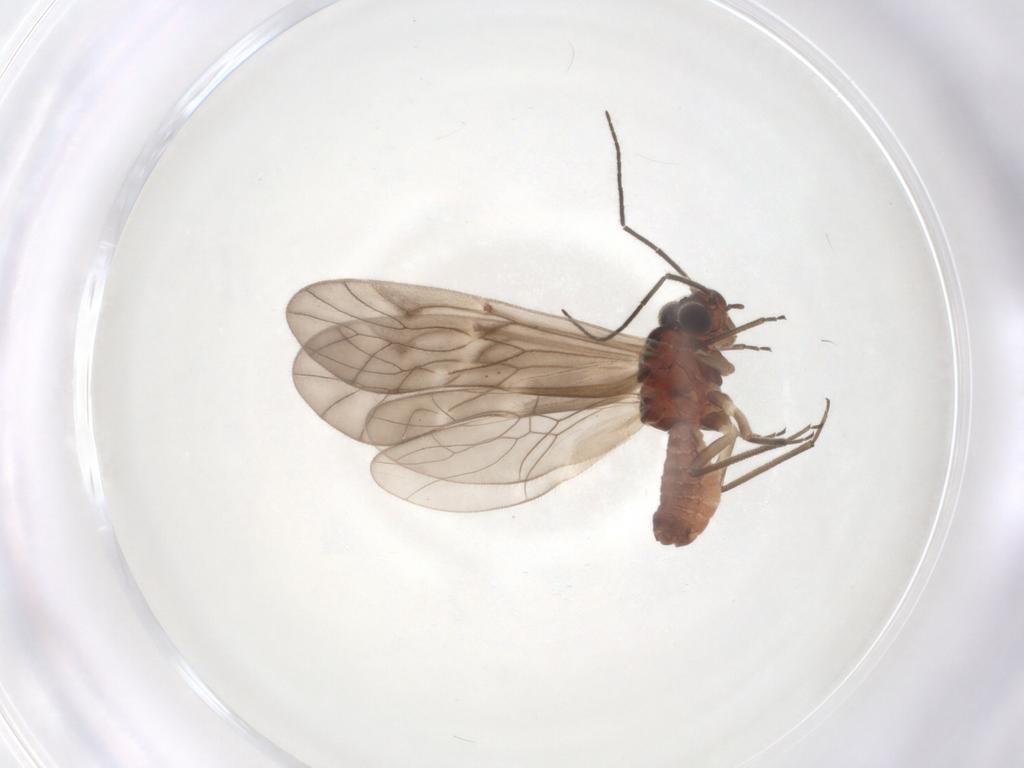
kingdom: Animalia
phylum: Arthropoda
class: Insecta
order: Psocodea
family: Caeciliusidae
